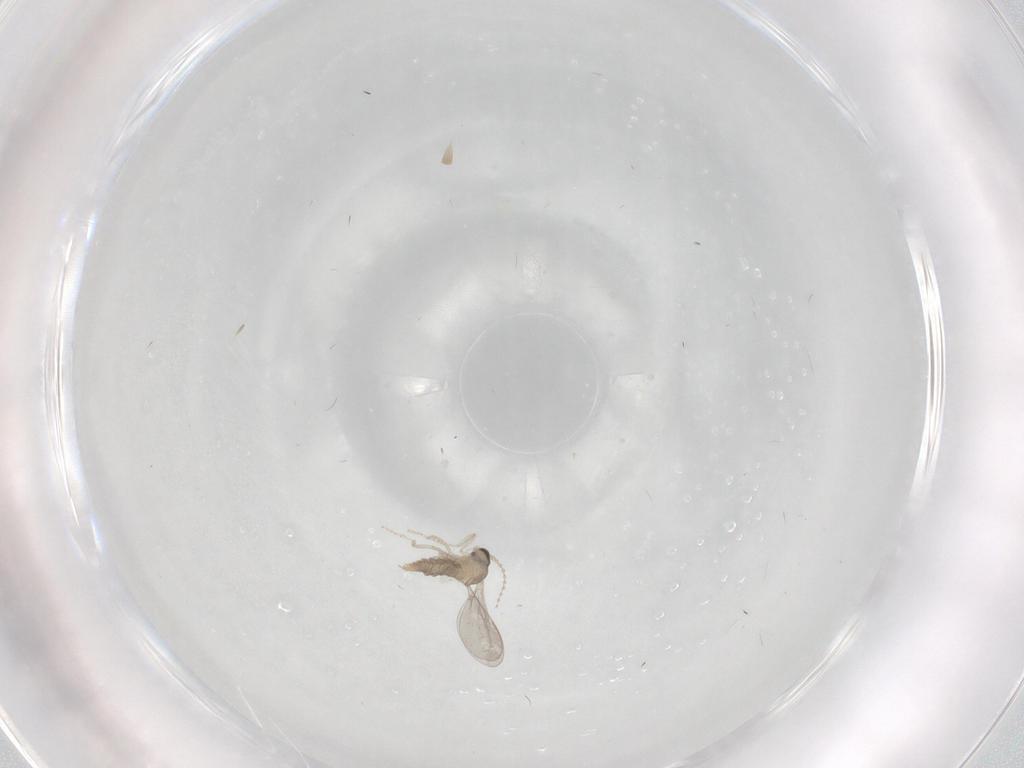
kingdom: Animalia
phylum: Arthropoda
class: Insecta
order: Diptera
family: Cecidomyiidae
